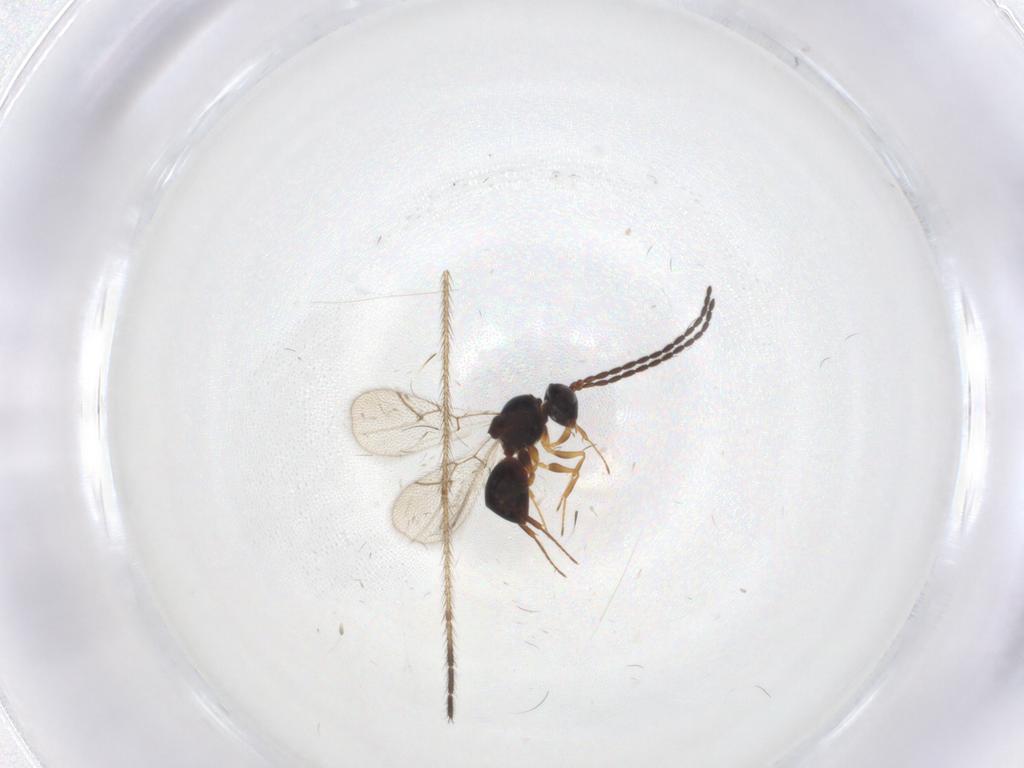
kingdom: Animalia
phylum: Arthropoda
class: Insecta
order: Hymenoptera
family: Figitidae
